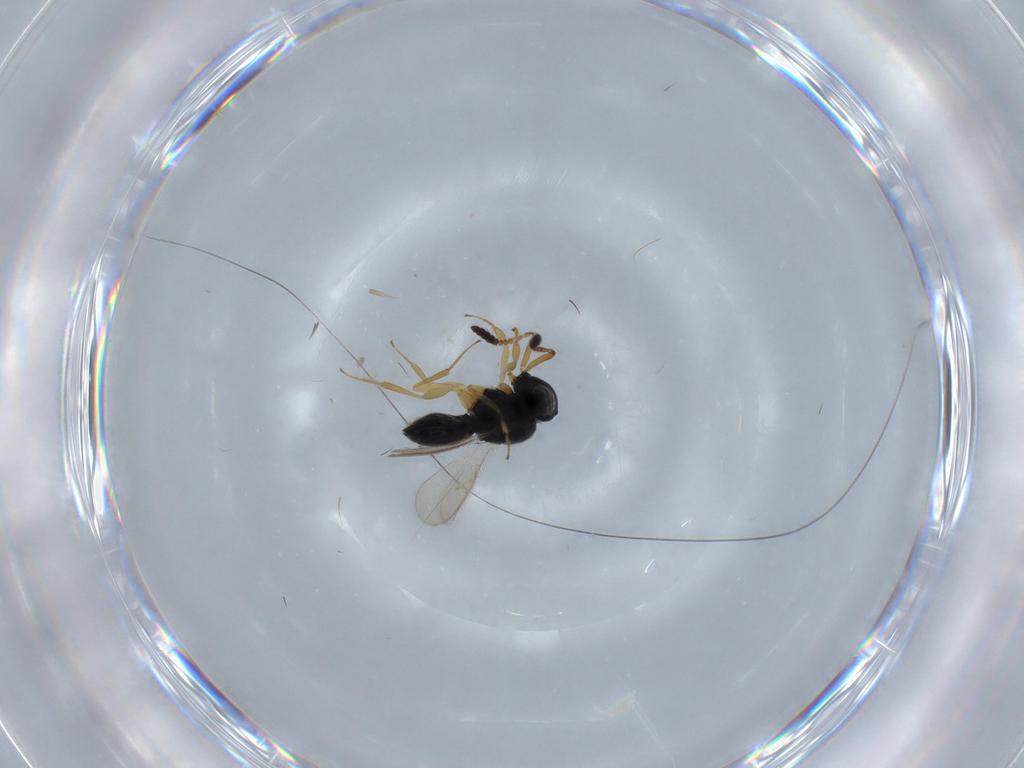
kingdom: Animalia
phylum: Arthropoda
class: Insecta
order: Hymenoptera
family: Scelionidae
